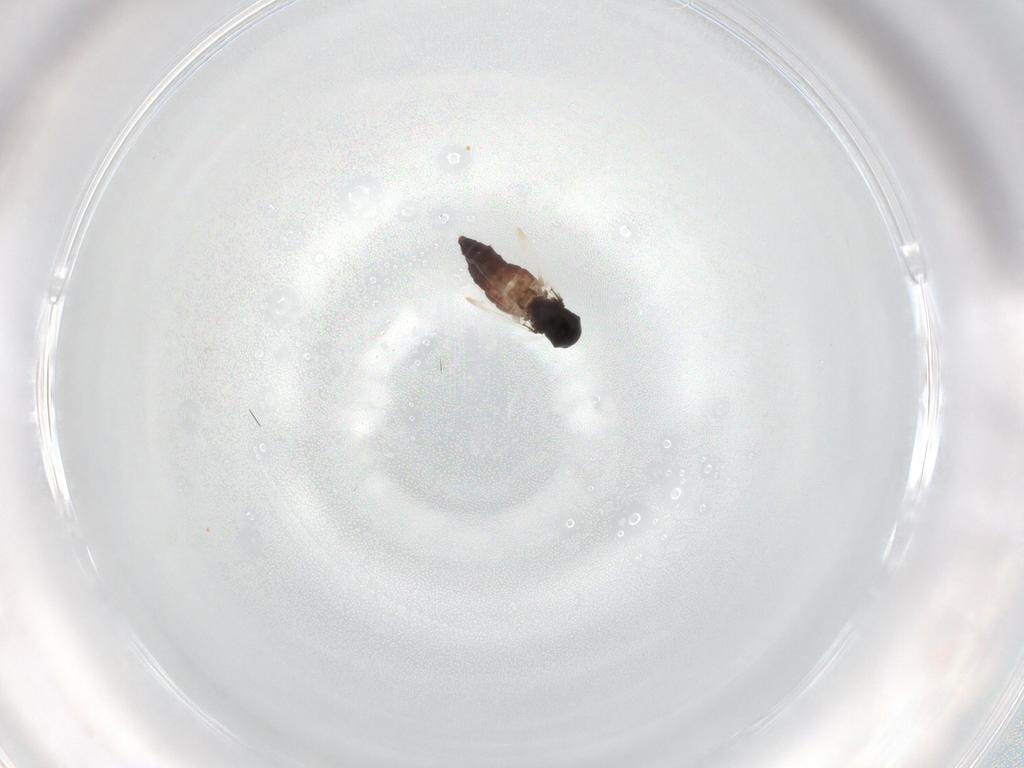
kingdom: Animalia
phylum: Arthropoda
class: Insecta
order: Diptera
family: Ceratopogonidae
